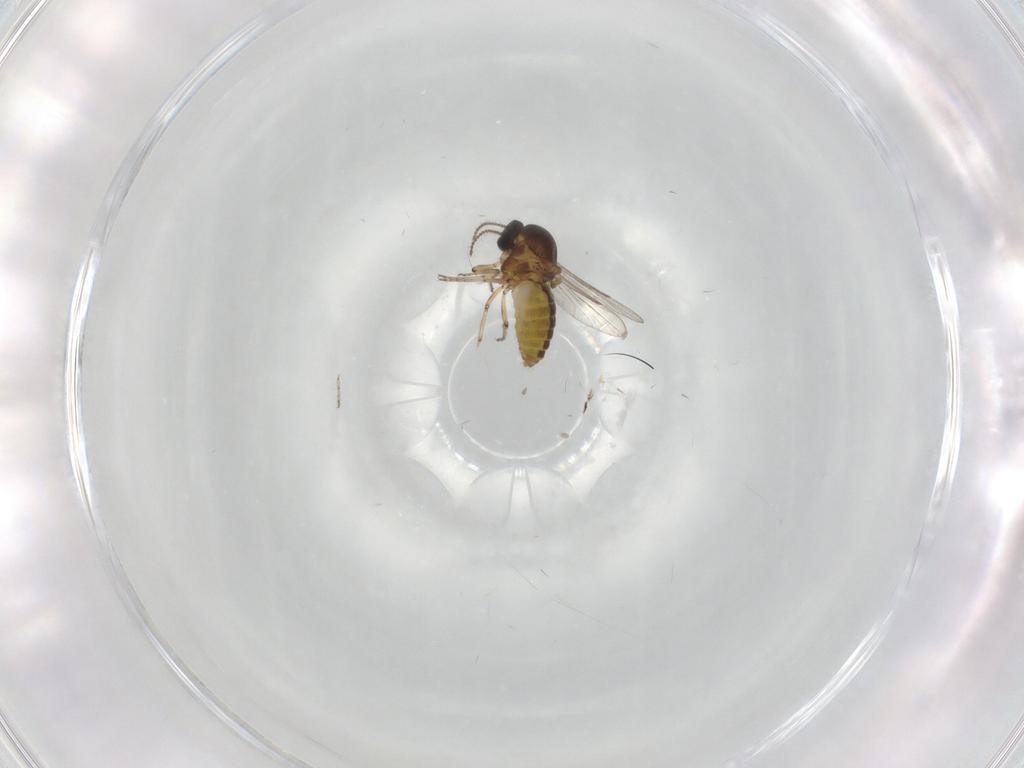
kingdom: Animalia
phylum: Arthropoda
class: Insecta
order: Diptera
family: Ceratopogonidae
